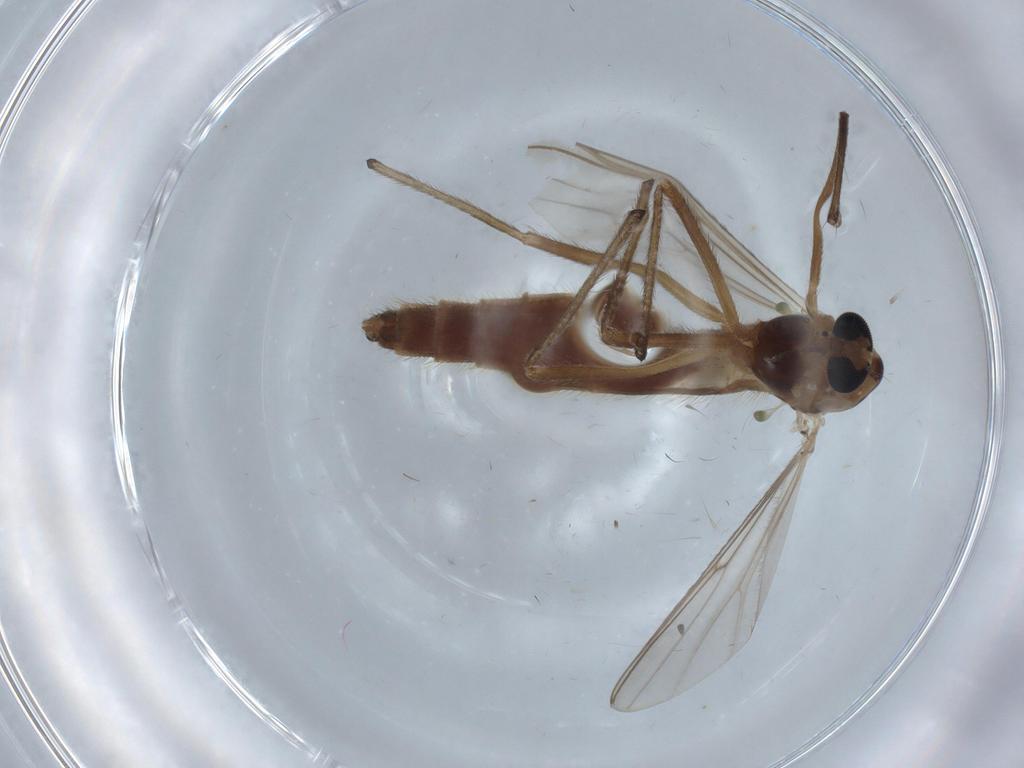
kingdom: Animalia
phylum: Arthropoda
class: Insecta
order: Diptera
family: Chironomidae
